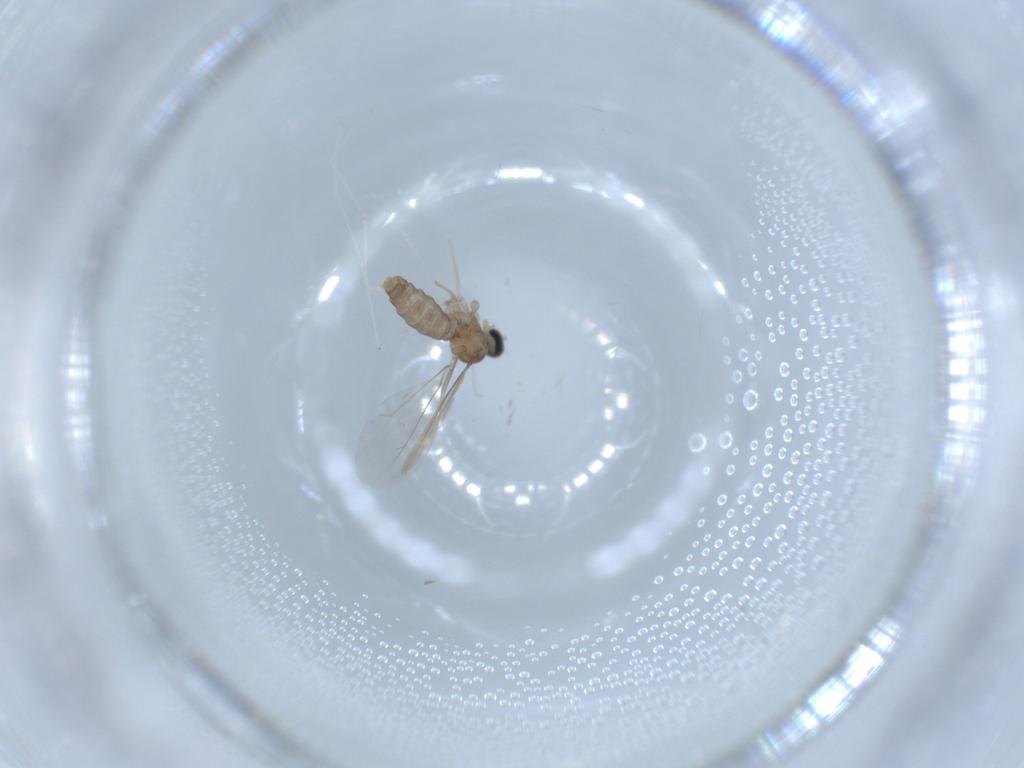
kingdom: Animalia
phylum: Arthropoda
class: Insecta
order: Diptera
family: Cecidomyiidae
